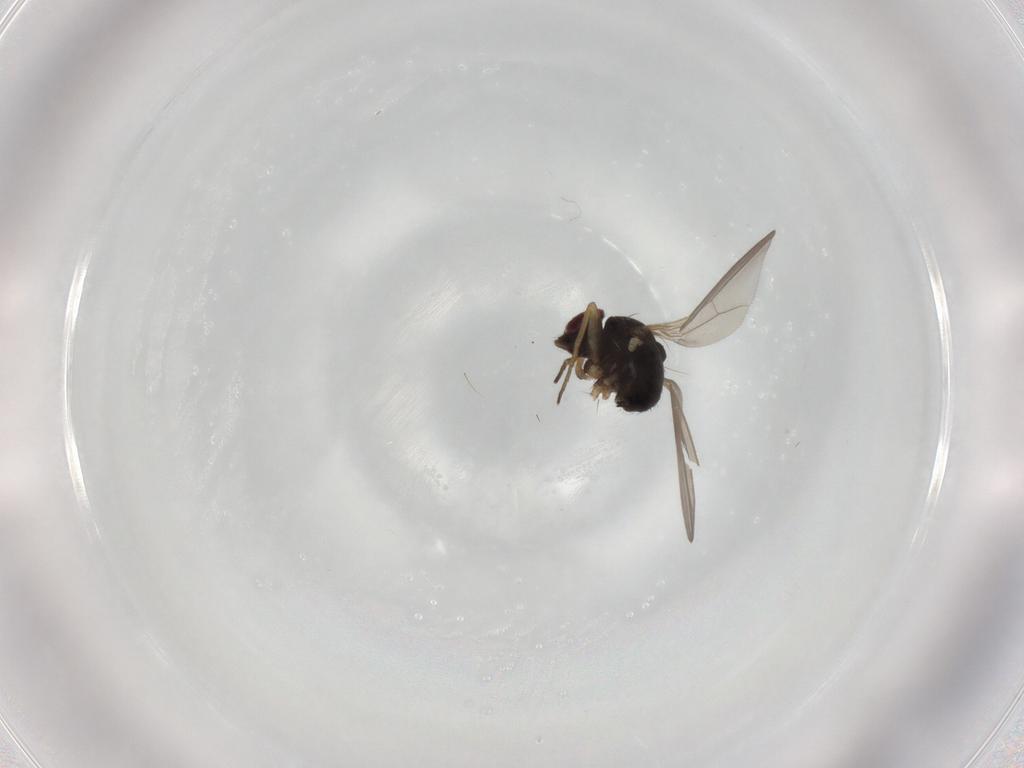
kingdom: Animalia
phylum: Arthropoda
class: Insecta
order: Diptera
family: Dolichopodidae
